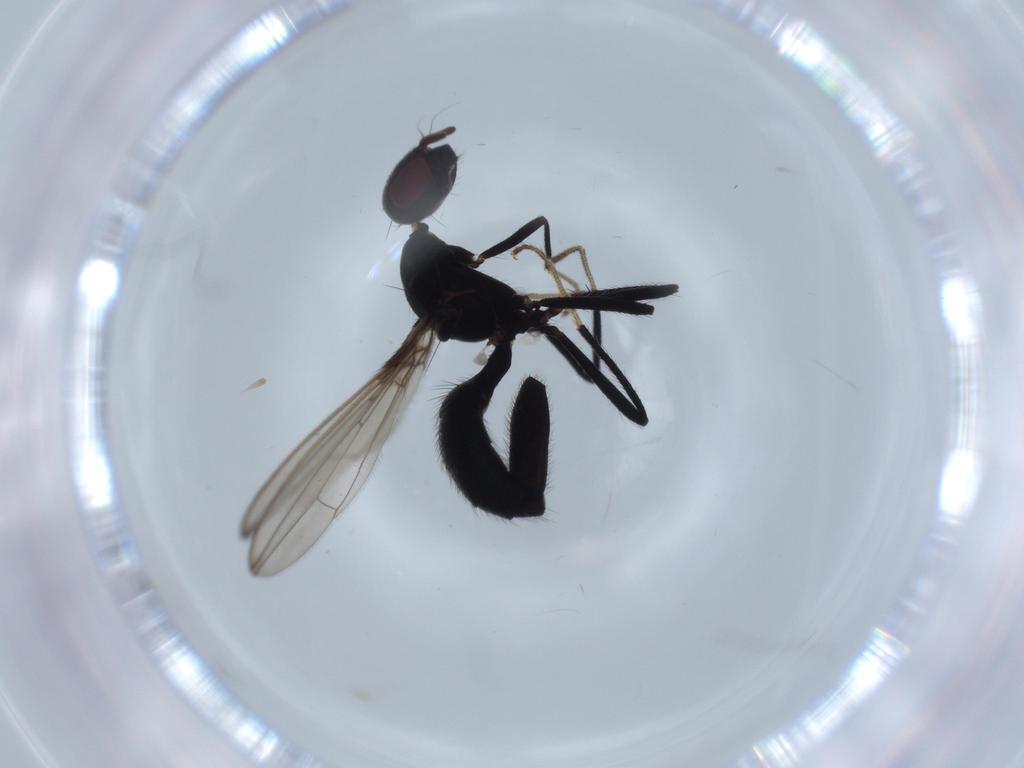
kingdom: Animalia
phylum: Arthropoda
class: Insecta
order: Diptera
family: Richardiidae
